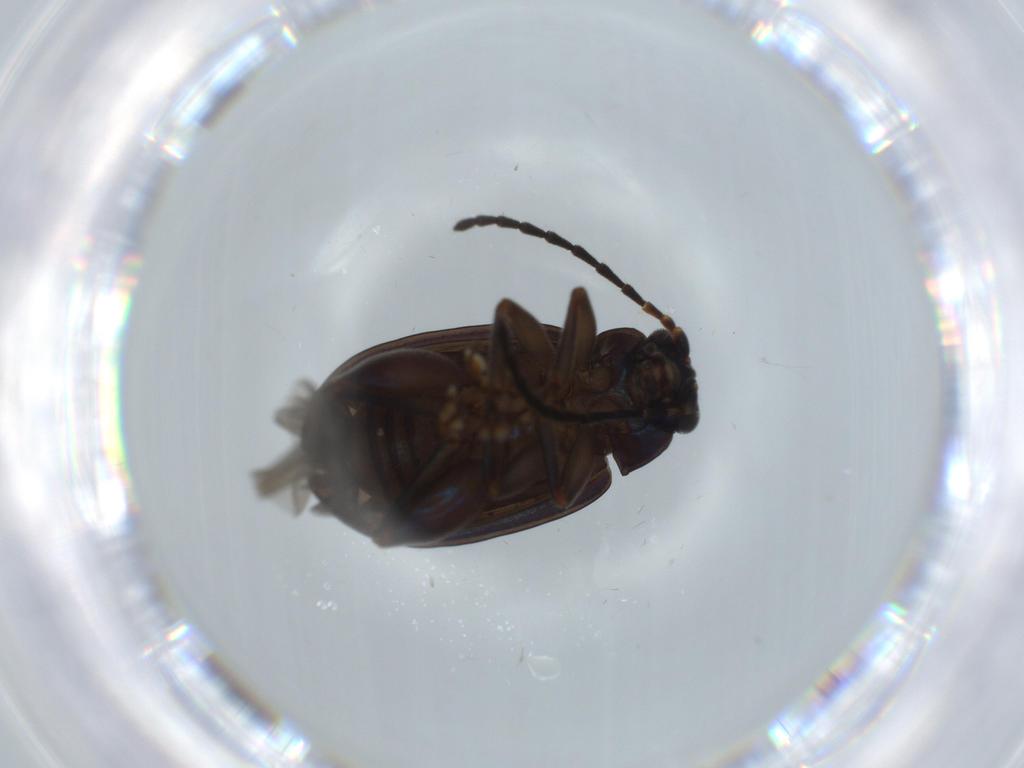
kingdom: Animalia
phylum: Arthropoda
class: Insecta
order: Coleoptera
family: Chrysomelidae
